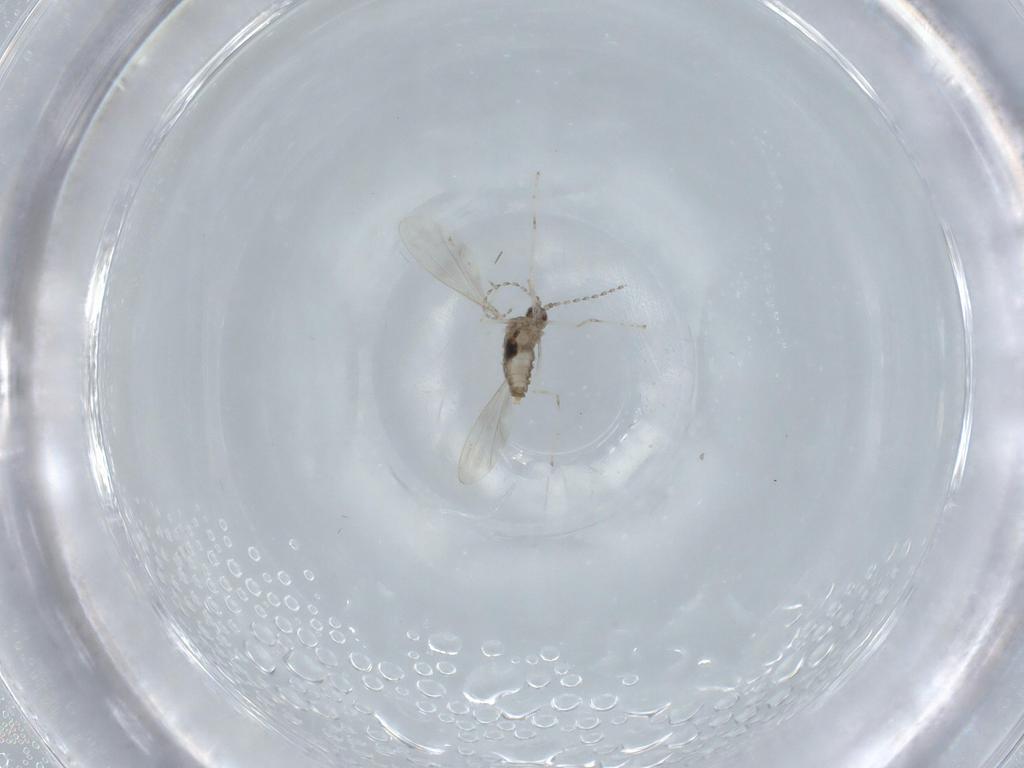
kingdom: Animalia
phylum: Arthropoda
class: Insecta
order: Diptera
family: Cecidomyiidae
